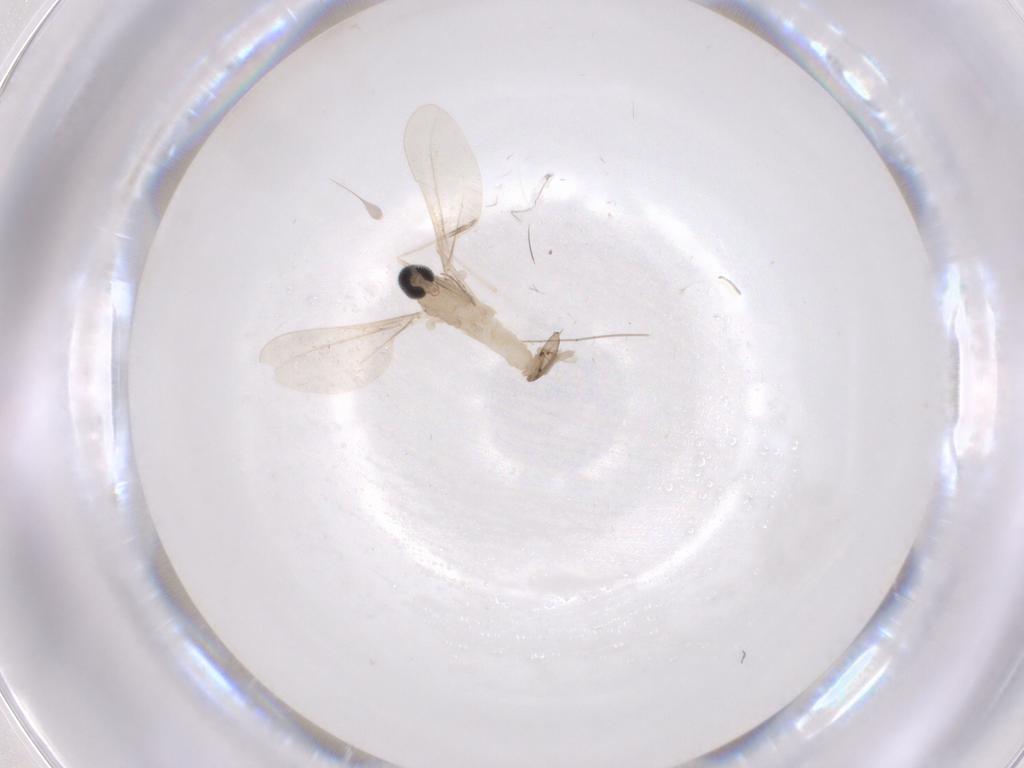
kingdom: Animalia
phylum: Arthropoda
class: Insecta
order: Diptera
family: Cecidomyiidae
